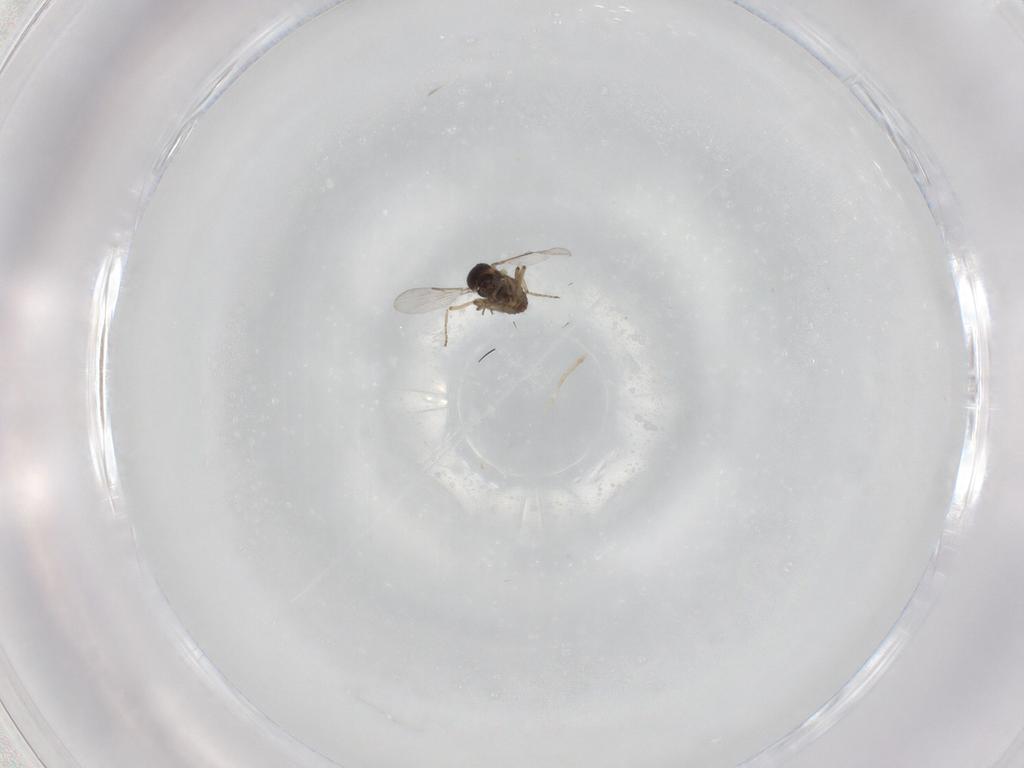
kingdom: Animalia
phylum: Arthropoda
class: Insecta
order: Diptera
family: Ceratopogonidae
